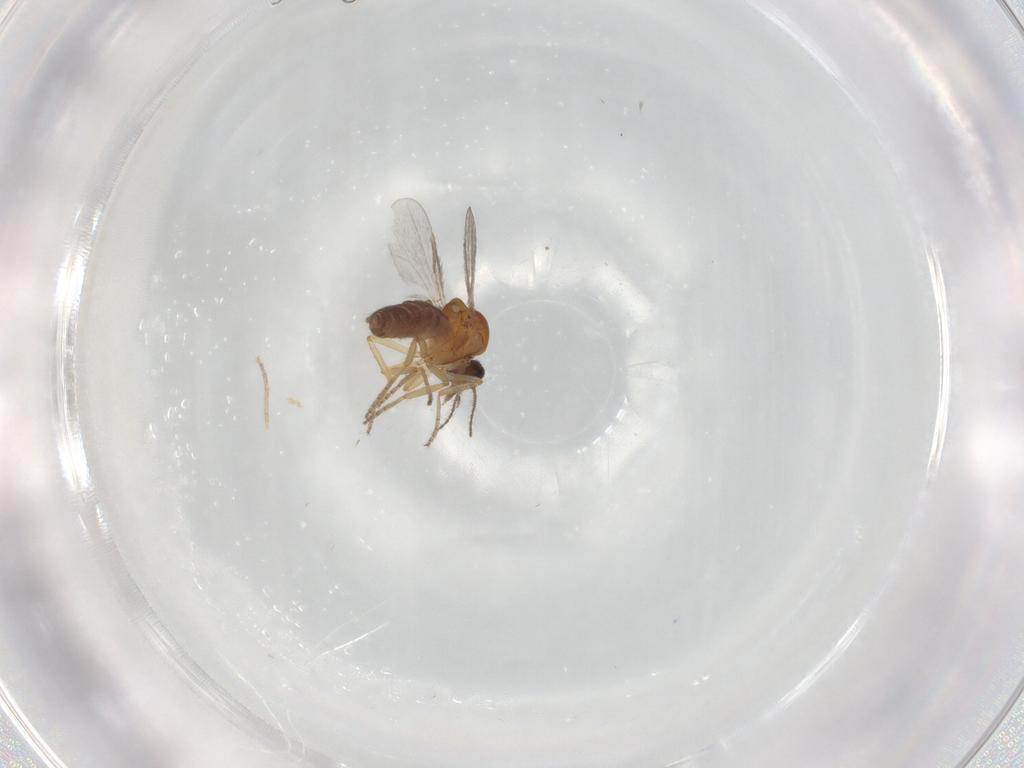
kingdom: Animalia
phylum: Arthropoda
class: Insecta
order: Diptera
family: Ceratopogonidae
